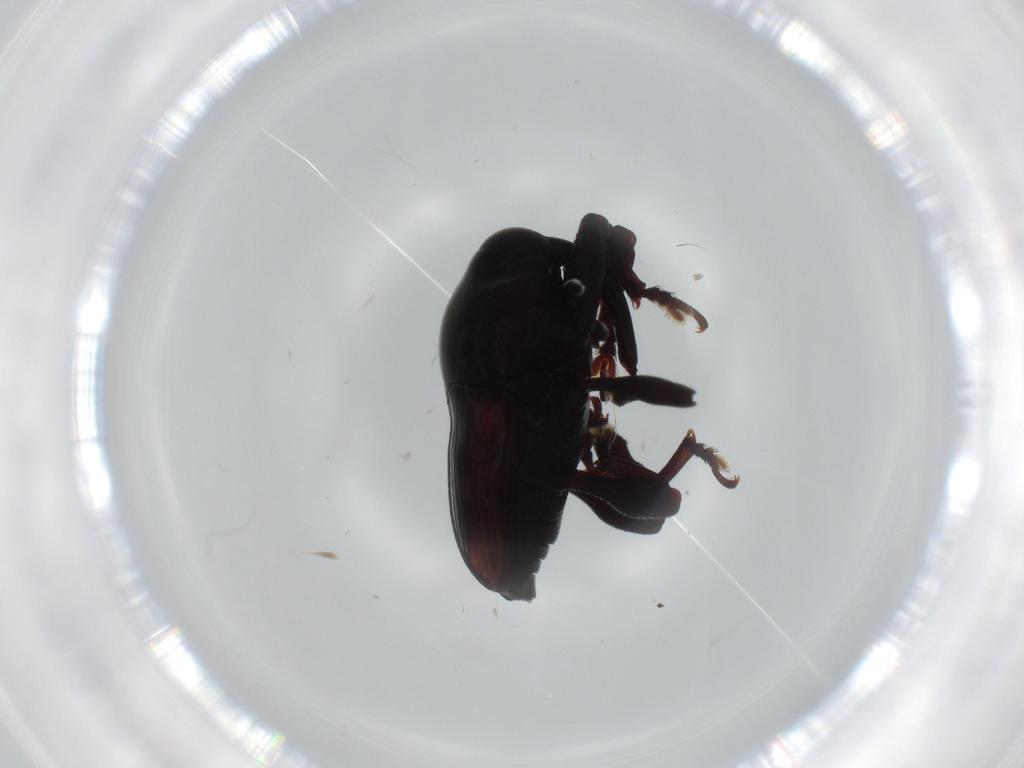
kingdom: Animalia
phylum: Arthropoda
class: Insecta
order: Coleoptera
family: Curculionidae
